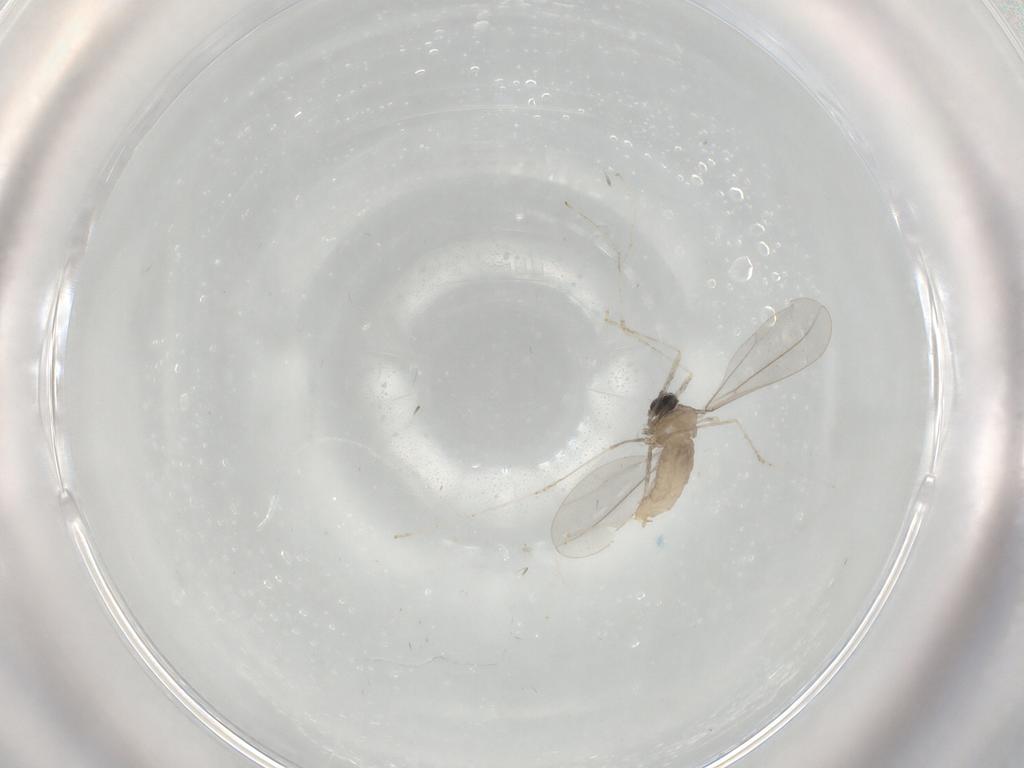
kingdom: Animalia
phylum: Arthropoda
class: Insecta
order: Diptera
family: Cecidomyiidae
